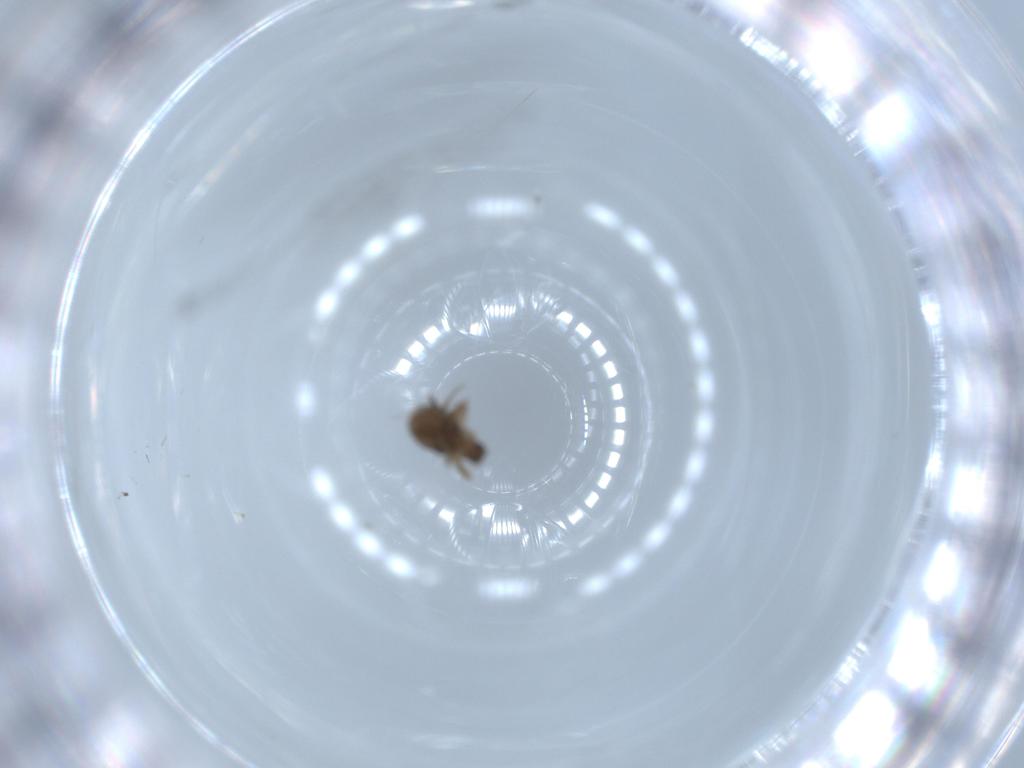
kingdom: Animalia
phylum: Arthropoda
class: Insecta
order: Diptera
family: Phoridae
